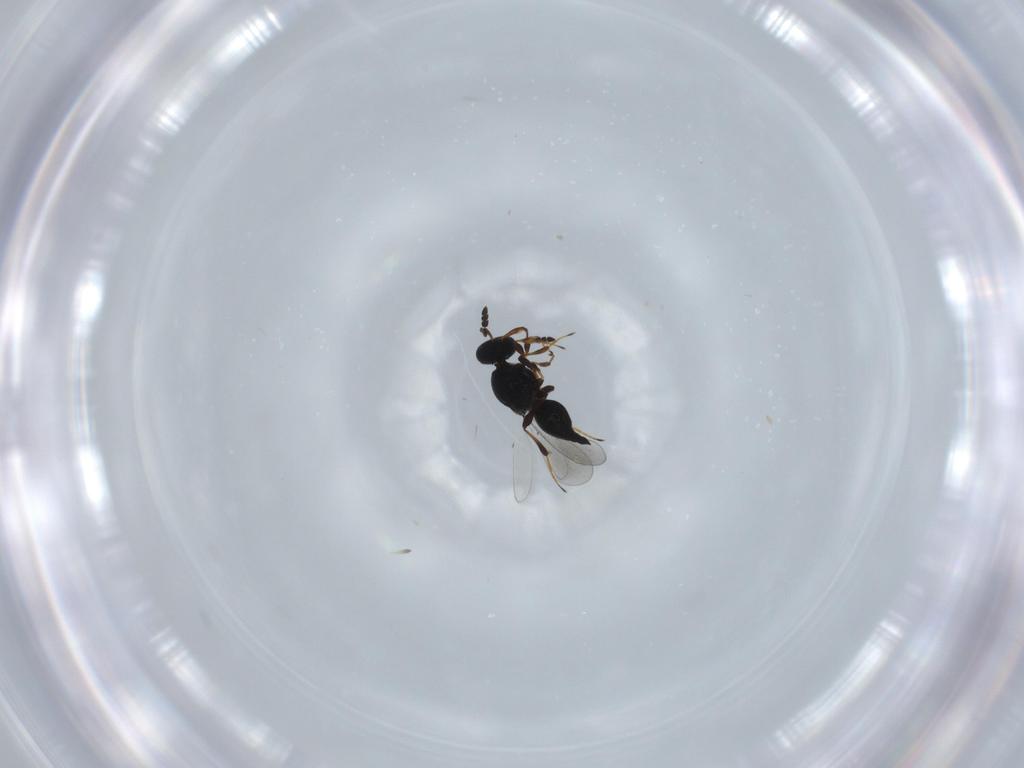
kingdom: Animalia
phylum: Arthropoda
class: Insecta
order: Hymenoptera
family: Platygastridae
